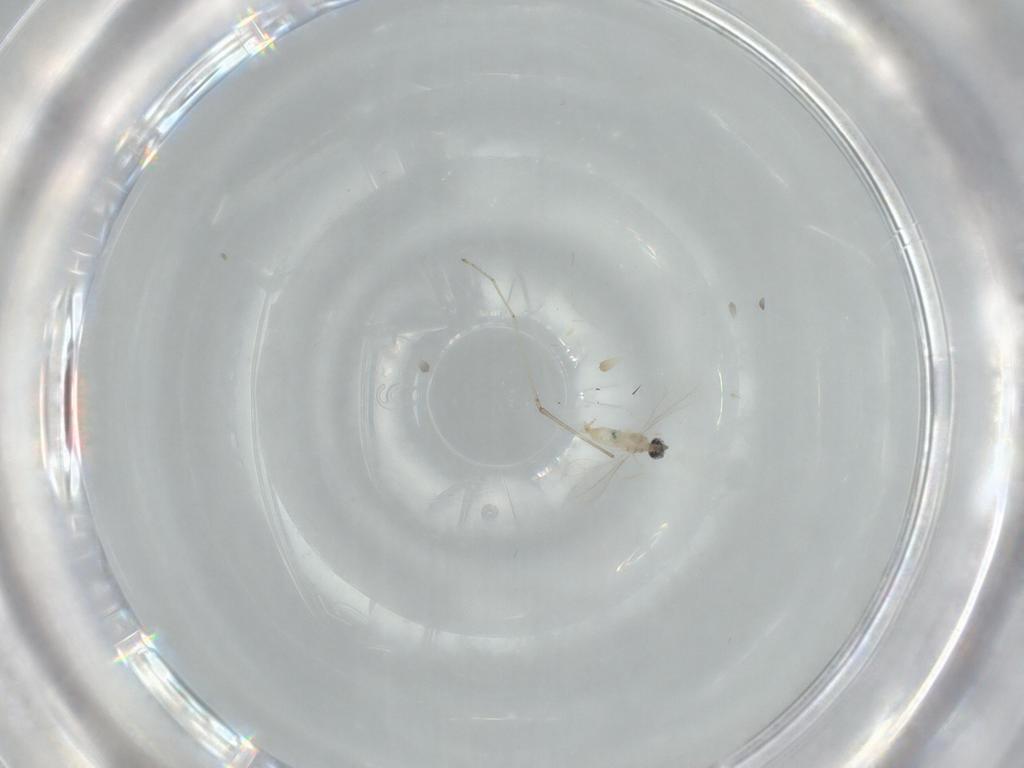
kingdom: Animalia
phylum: Arthropoda
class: Insecta
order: Diptera
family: Cecidomyiidae
